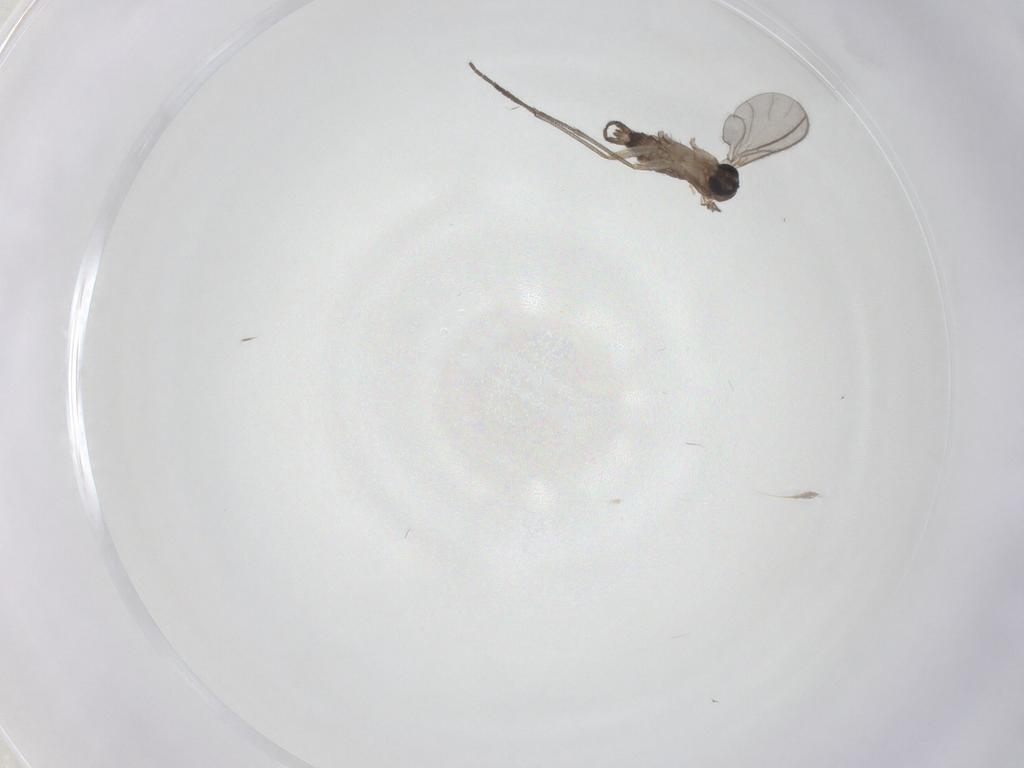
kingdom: Animalia
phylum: Arthropoda
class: Insecta
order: Diptera
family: Sciaridae
